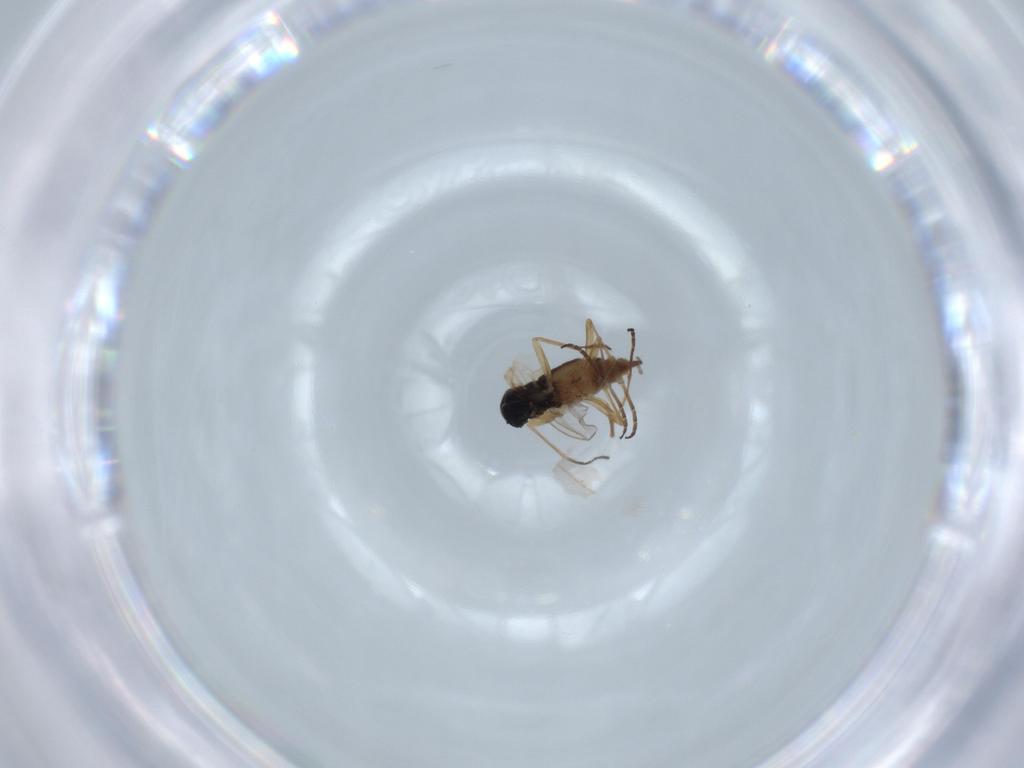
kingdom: Animalia
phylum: Arthropoda
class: Insecta
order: Diptera
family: Sciaridae
